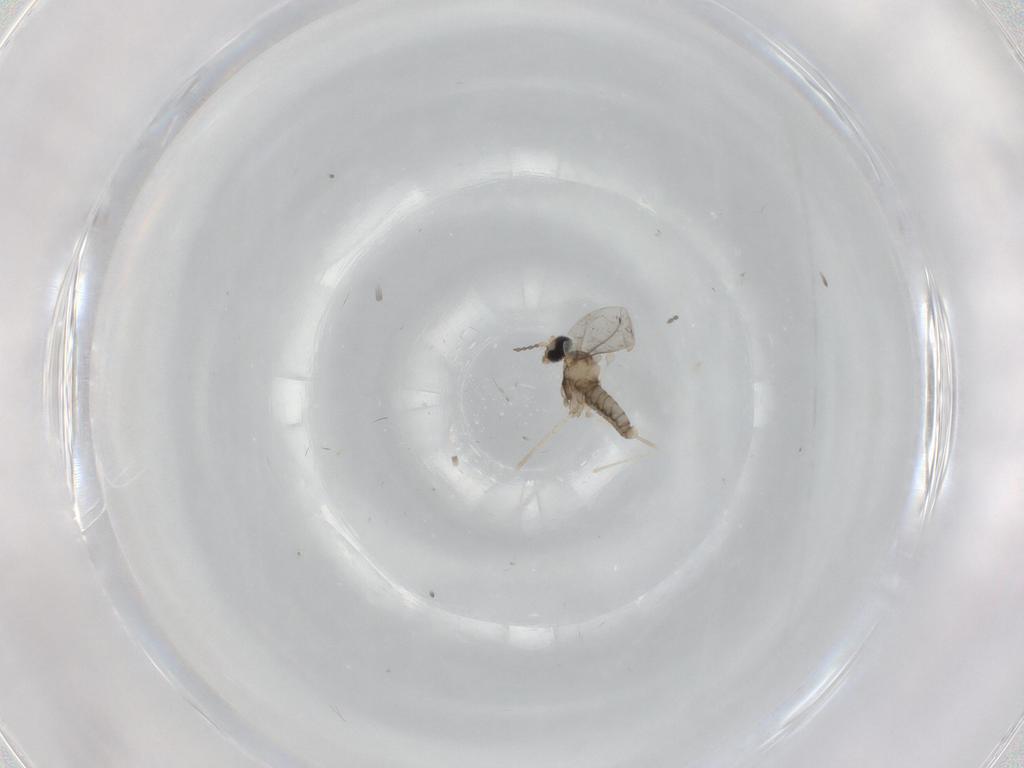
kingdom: Animalia
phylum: Arthropoda
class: Insecta
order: Diptera
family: Cecidomyiidae
